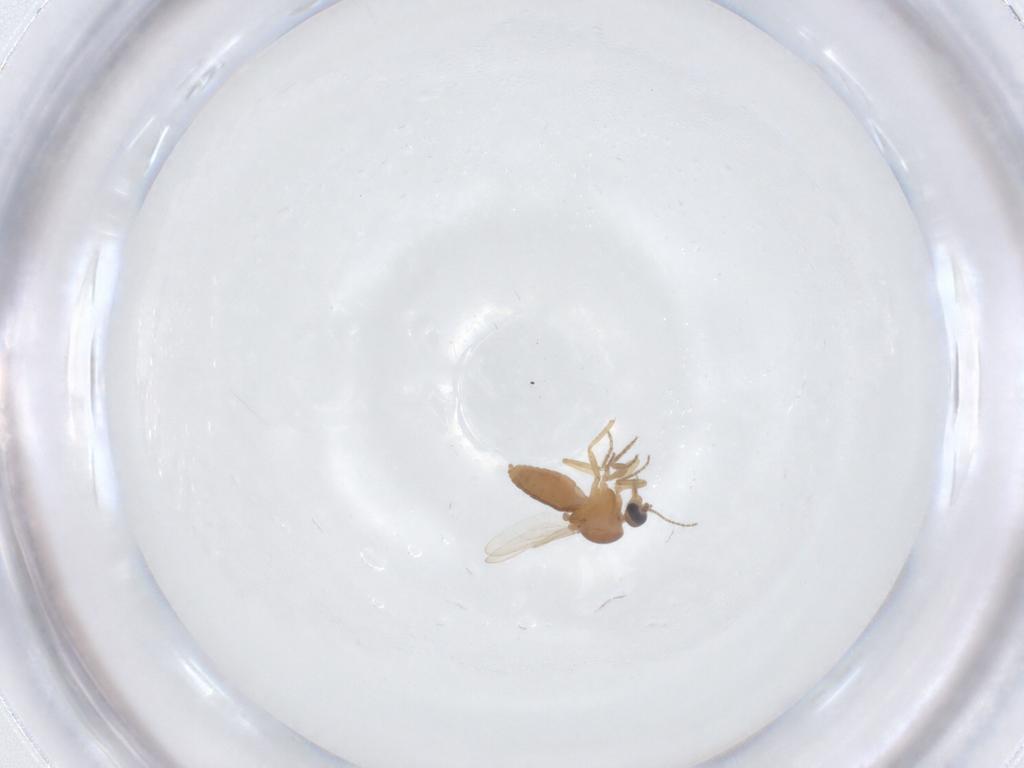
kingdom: Animalia
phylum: Arthropoda
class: Insecta
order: Diptera
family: Ceratopogonidae
